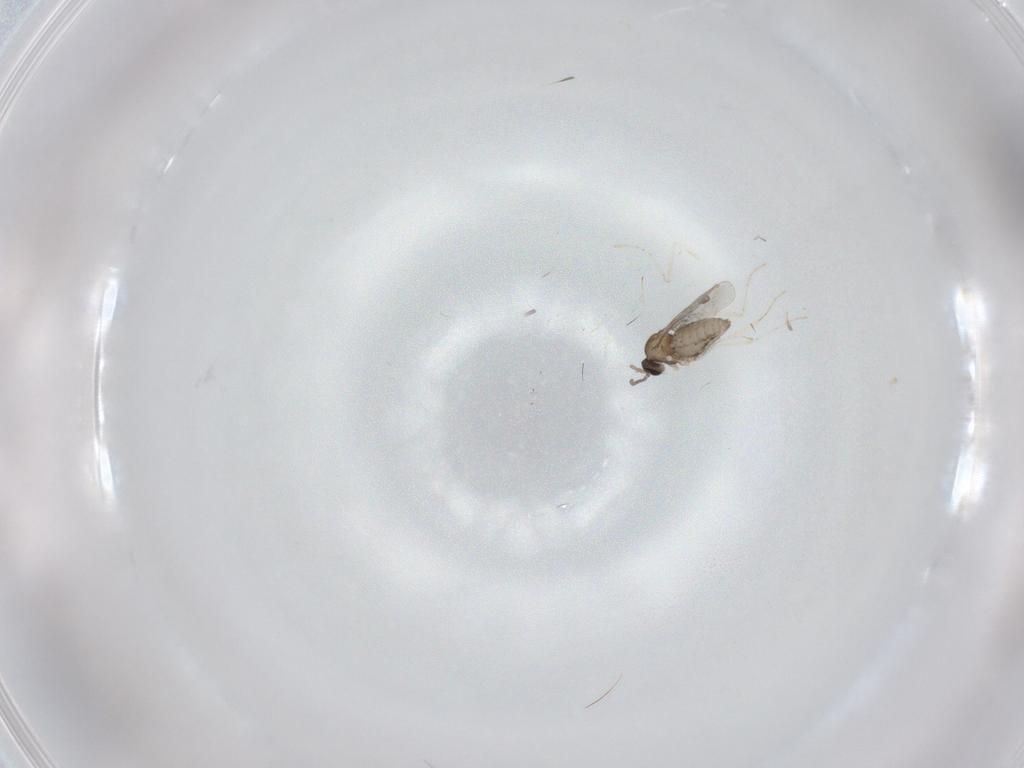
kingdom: Animalia
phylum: Arthropoda
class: Insecta
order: Diptera
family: Cecidomyiidae
